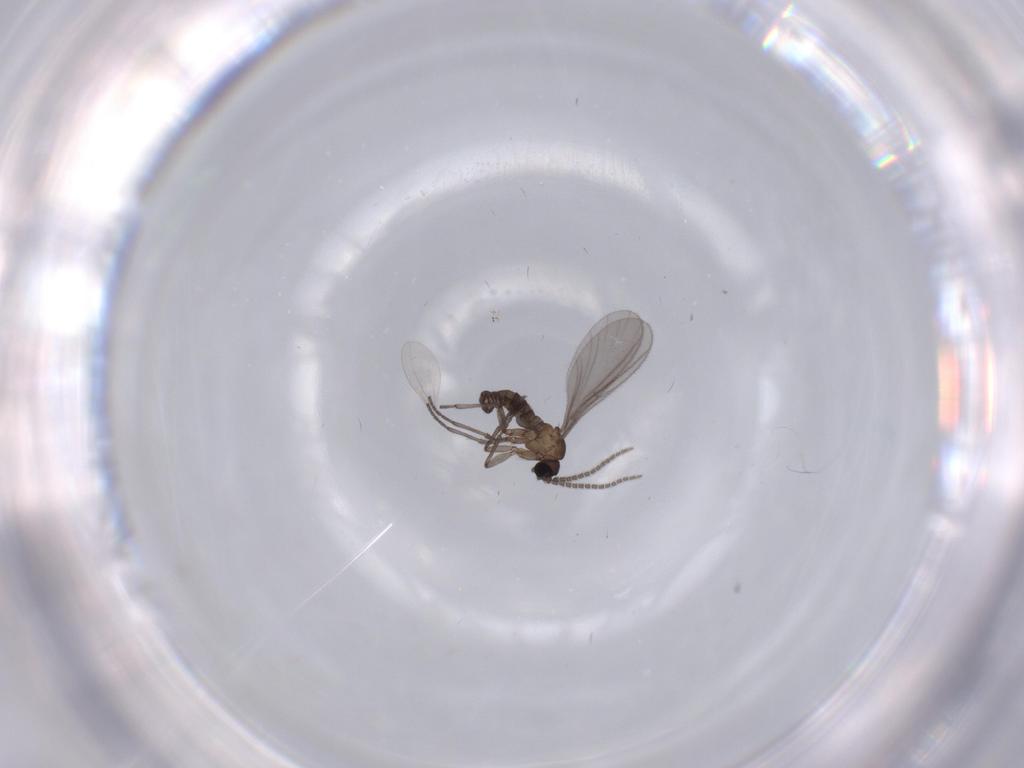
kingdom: Animalia
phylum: Arthropoda
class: Insecta
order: Diptera
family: Sciaridae
